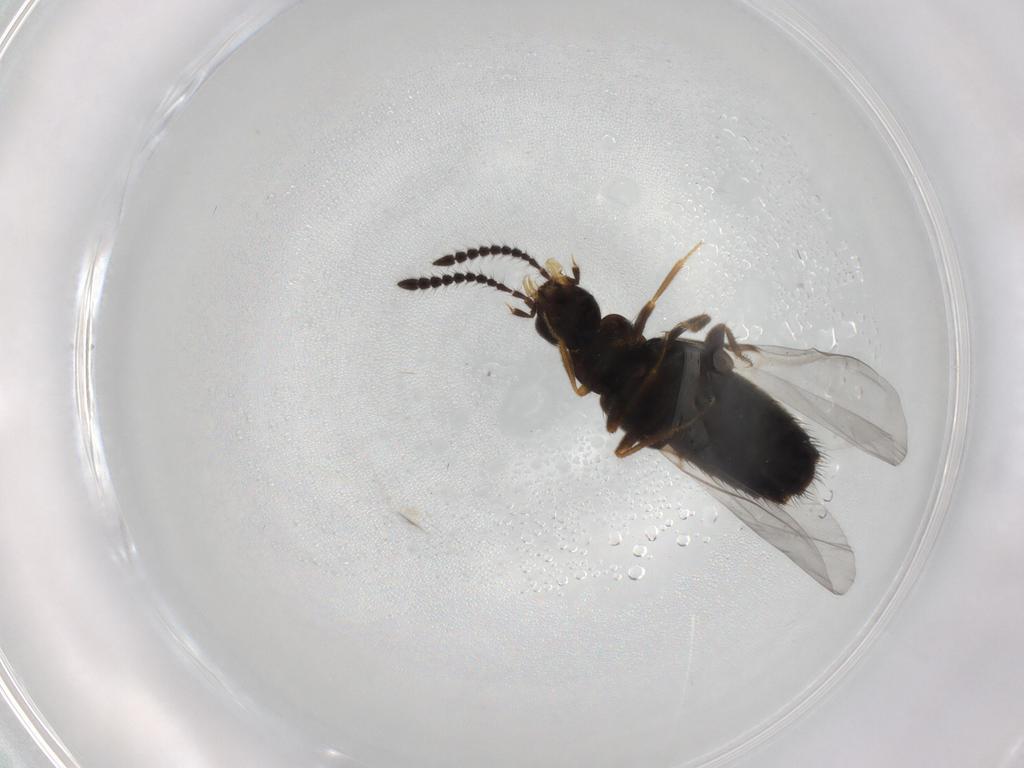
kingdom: Animalia
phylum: Arthropoda
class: Insecta
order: Coleoptera
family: Staphylinidae
